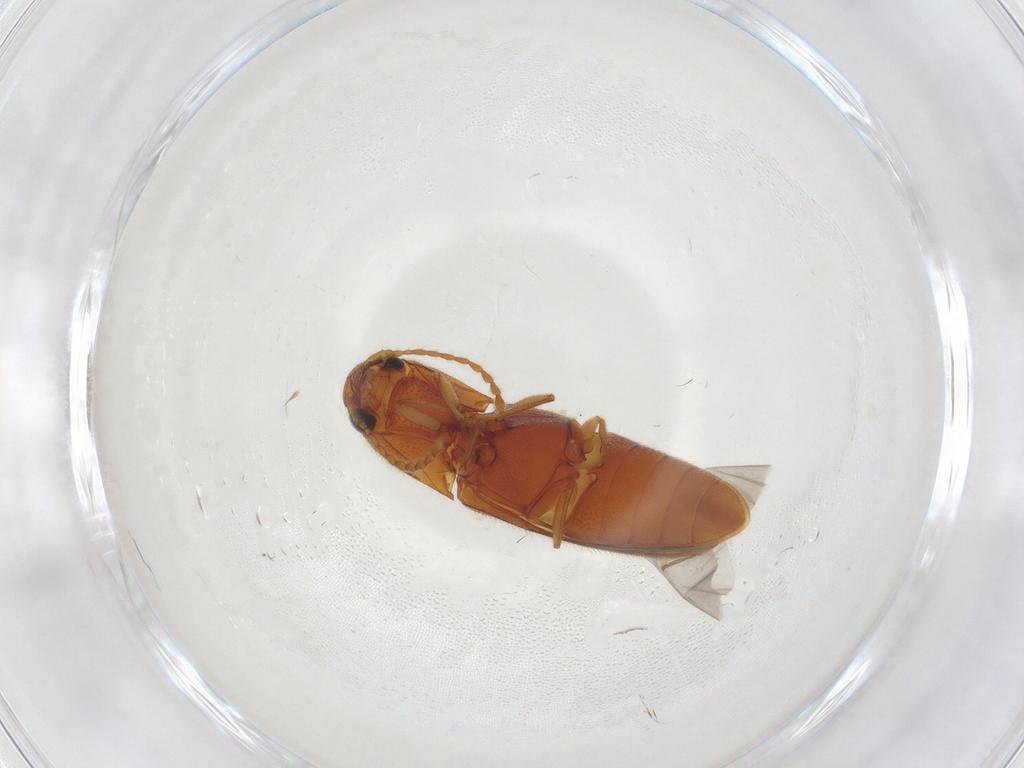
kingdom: Animalia
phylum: Arthropoda
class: Insecta
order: Coleoptera
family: Elateridae
